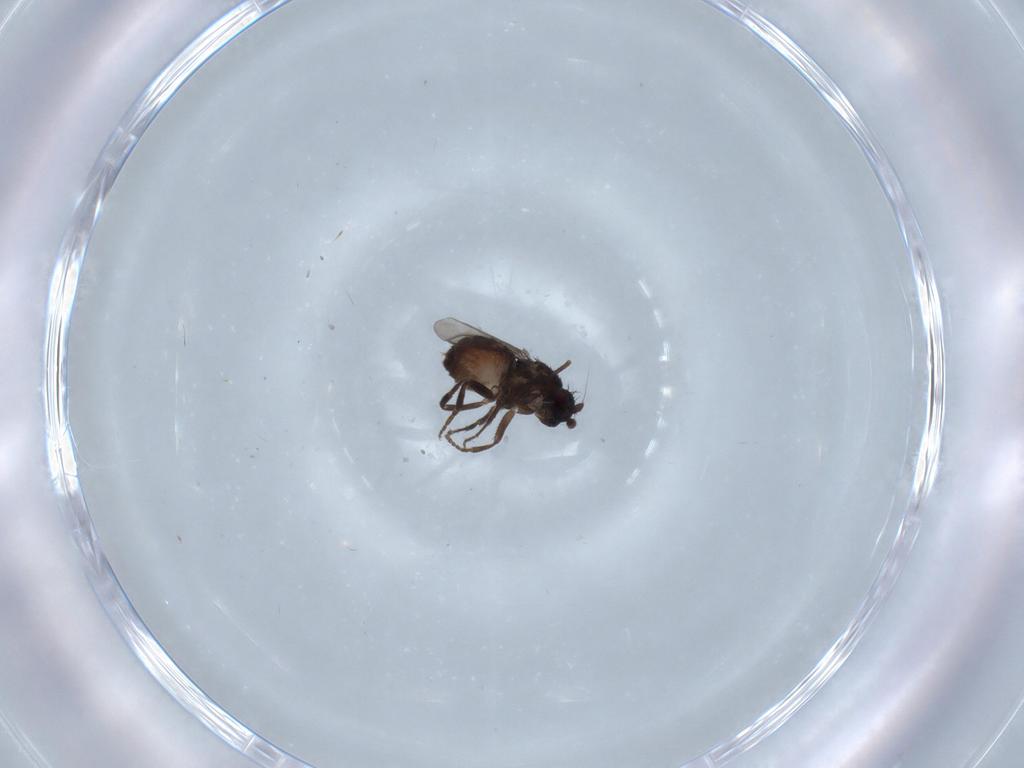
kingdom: Animalia
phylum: Arthropoda
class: Insecta
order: Diptera
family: Sphaeroceridae
